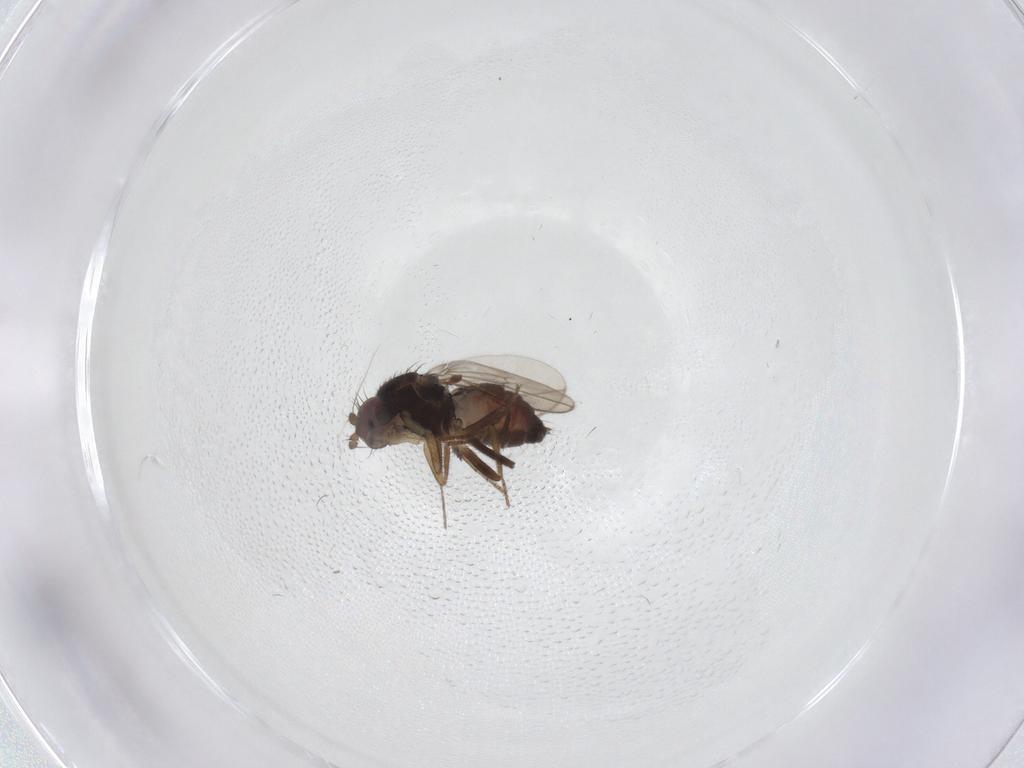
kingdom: Animalia
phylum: Arthropoda
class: Insecta
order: Diptera
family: Sphaeroceridae
